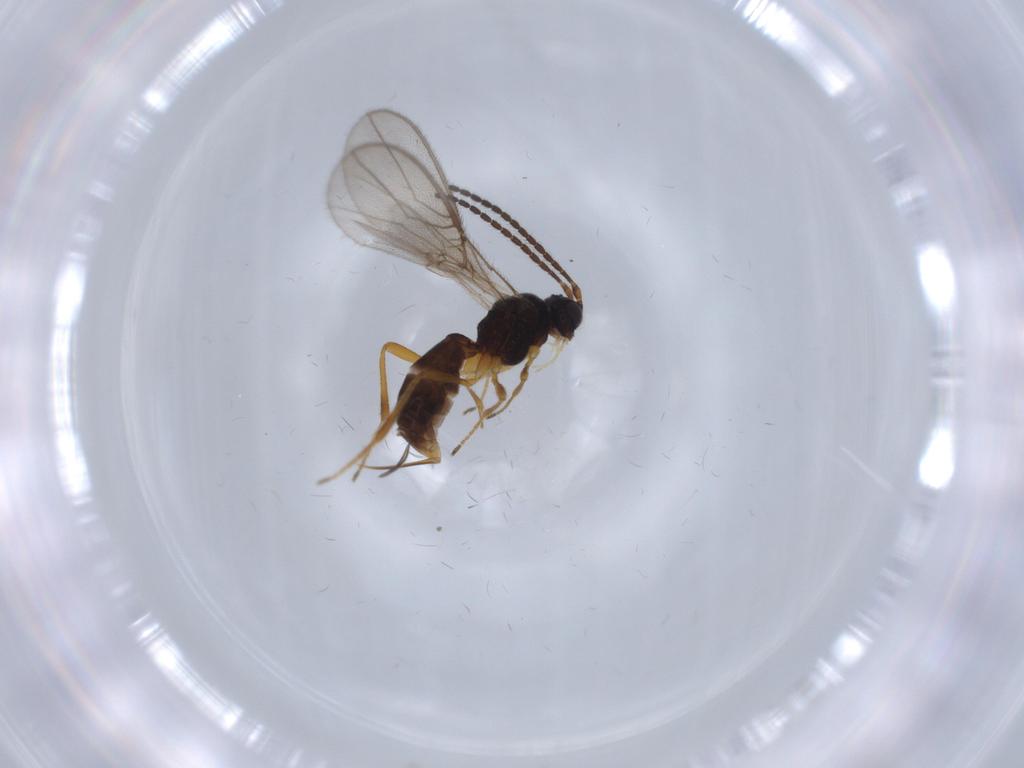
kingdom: Animalia
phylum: Arthropoda
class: Insecta
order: Hymenoptera
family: Braconidae
